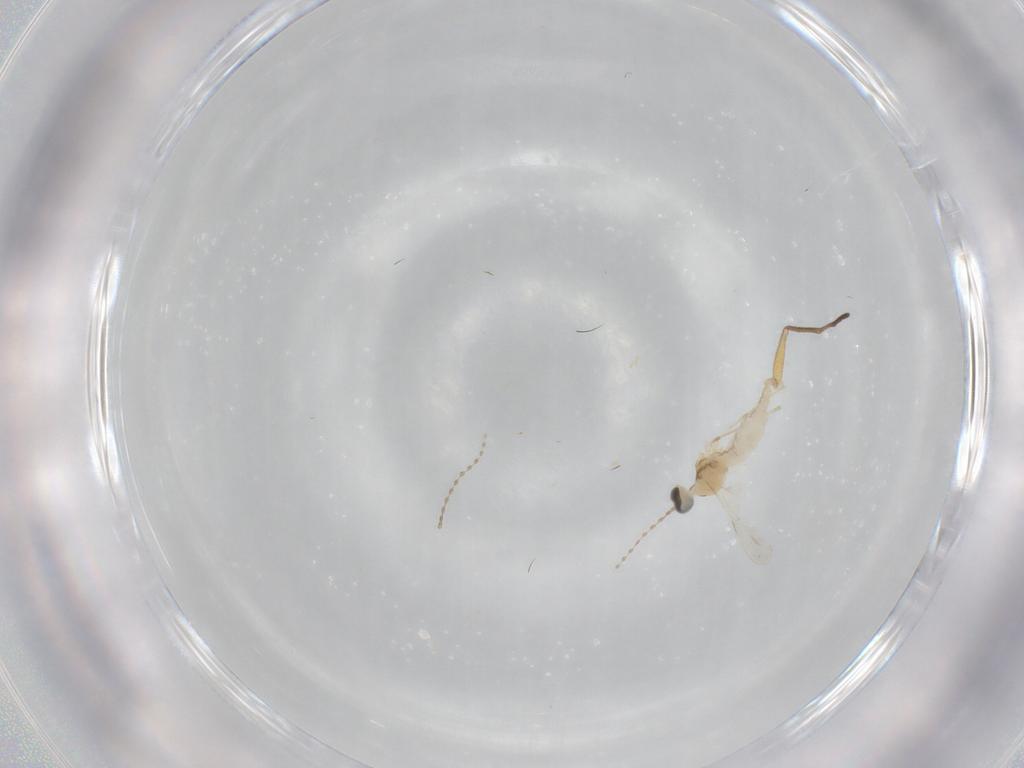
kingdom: Animalia
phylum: Arthropoda
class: Insecta
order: Diptera
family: Dolichopodidae
